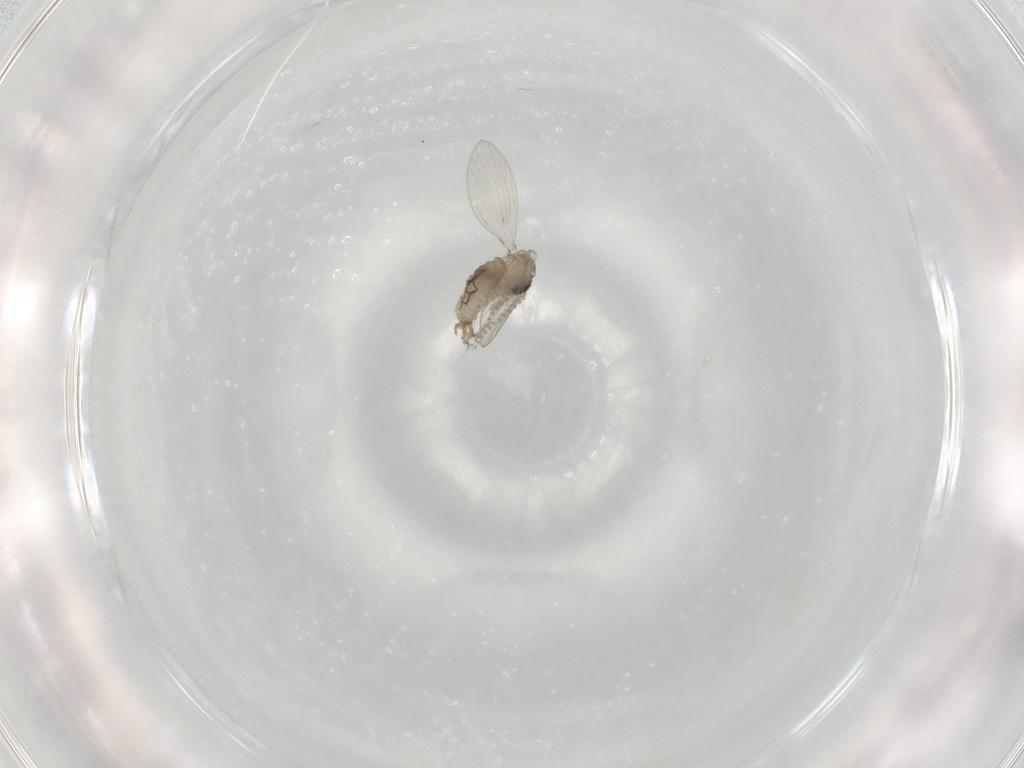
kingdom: Animalia
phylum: Arthropoda
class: Insecta
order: Diptera
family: Psychodidae
